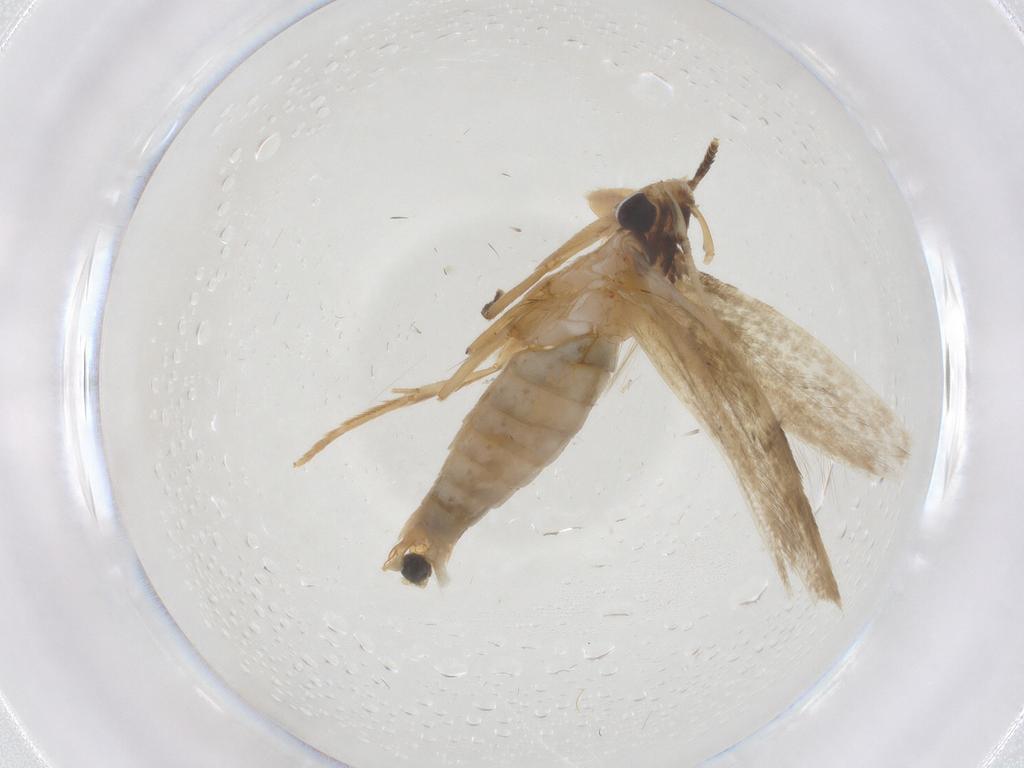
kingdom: Animalia
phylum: Arthropoda
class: Insecta
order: Lepidoptera
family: Tineidae
